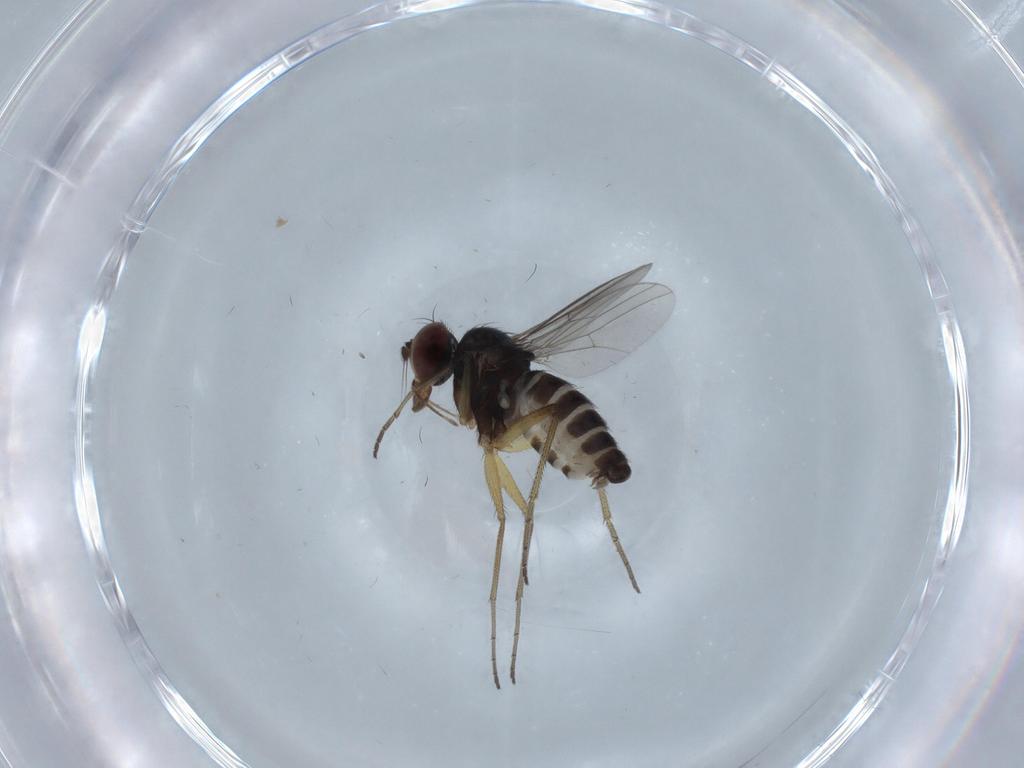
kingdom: Animalia
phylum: Arthropoda
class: Insecta
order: Diptera
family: Dolichopodidae
